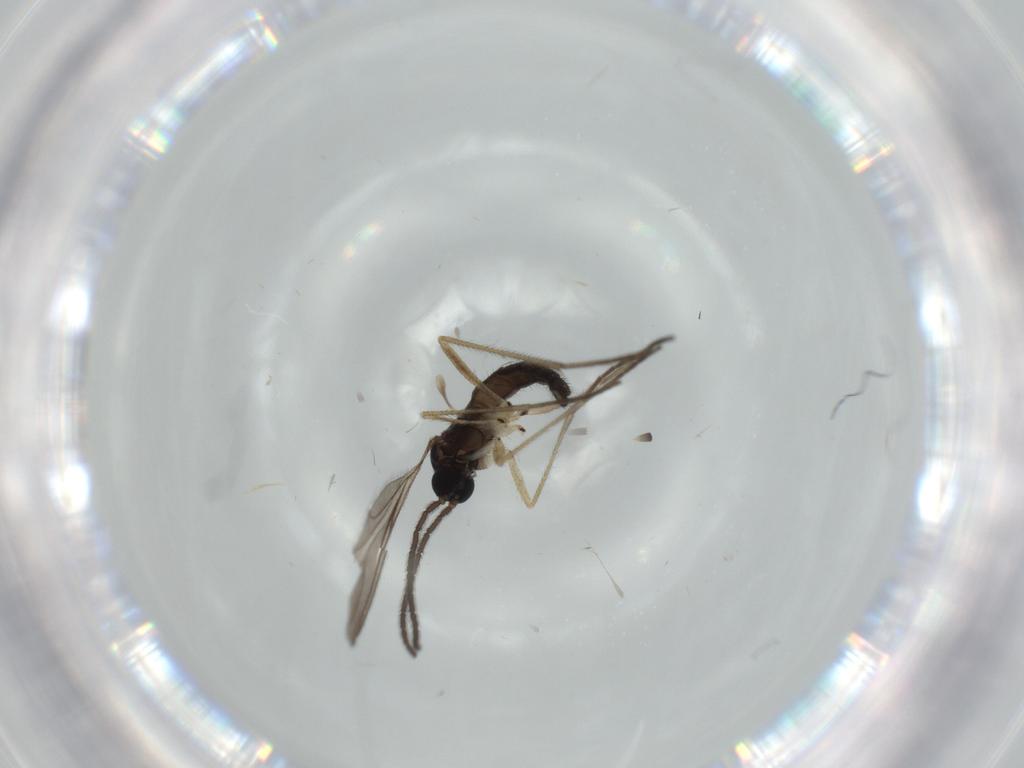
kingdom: Animalia
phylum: Arthropoda
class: Insecta
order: Diptera
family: Sciaridae
